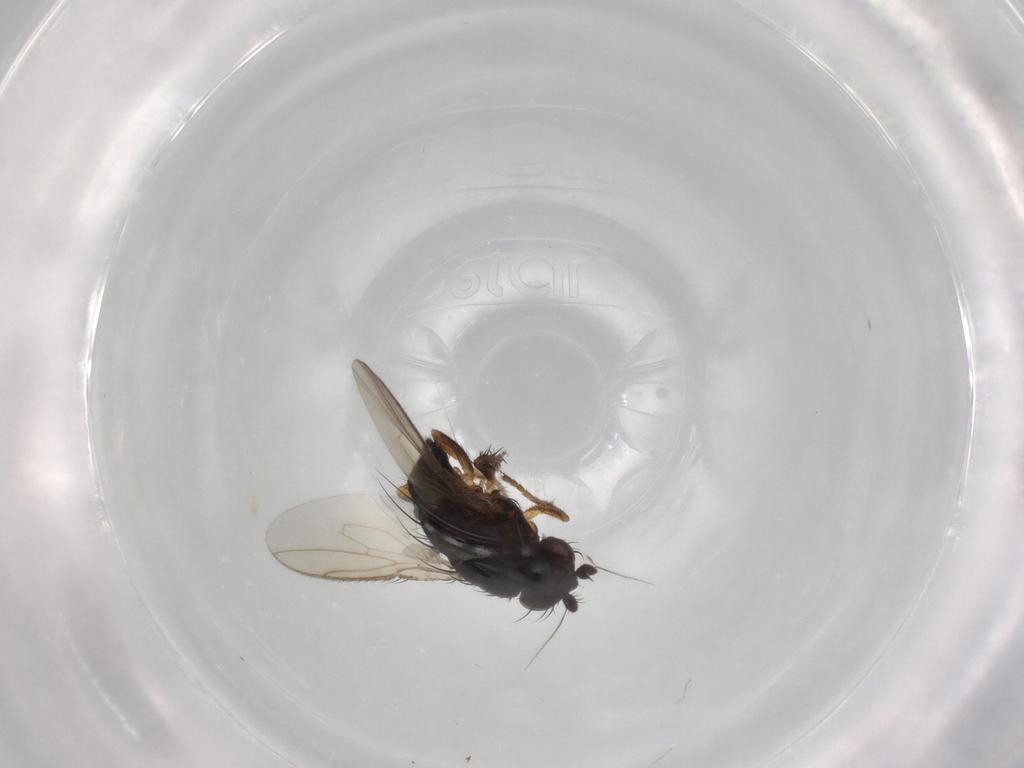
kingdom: Animalia
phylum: Arthropoda
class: Insecta
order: Diptera
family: Sphaeroceridae
